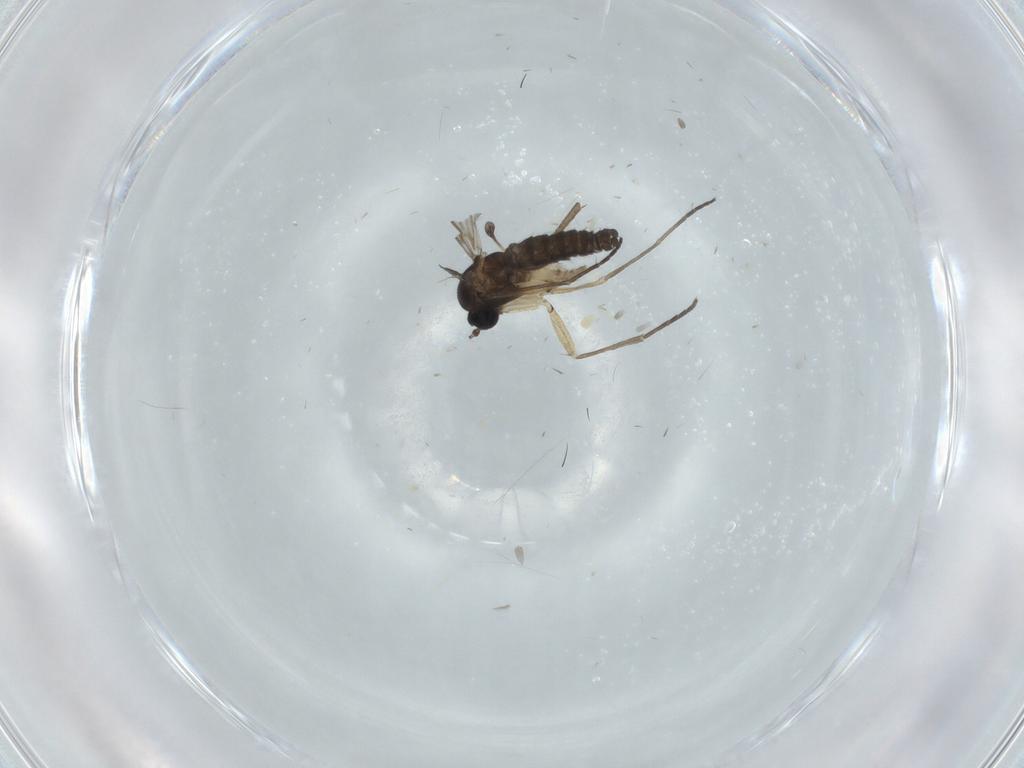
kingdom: Animalia
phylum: Arthropoda
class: Insecta
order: Diptera
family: Sciaridae
